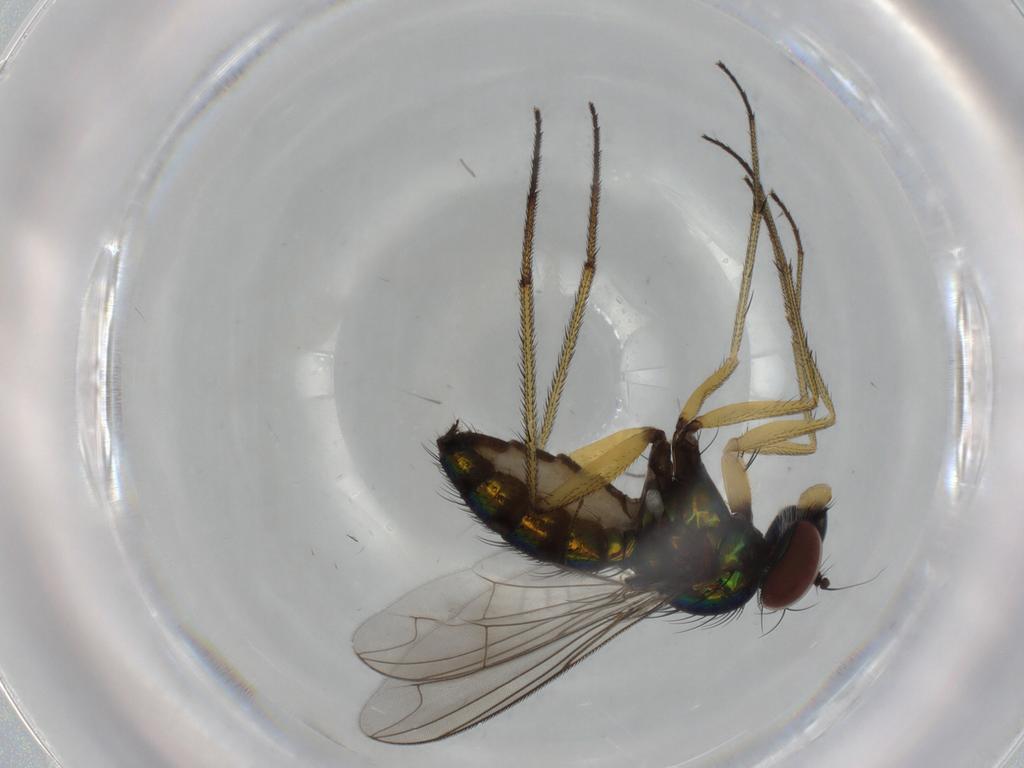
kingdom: Animalia
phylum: Arthropoda
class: Insecta
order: Diptera
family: Dolichopodidae
